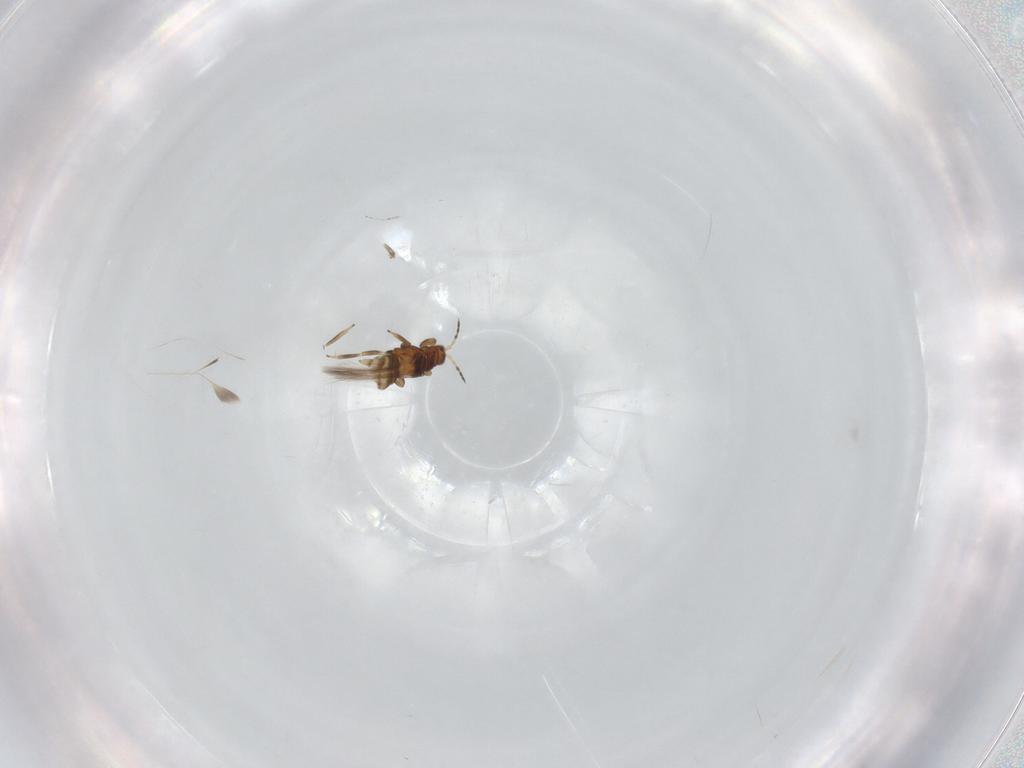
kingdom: Animalia
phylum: Arthropoda
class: Insecta
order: Thysanoptera
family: Thripidae
